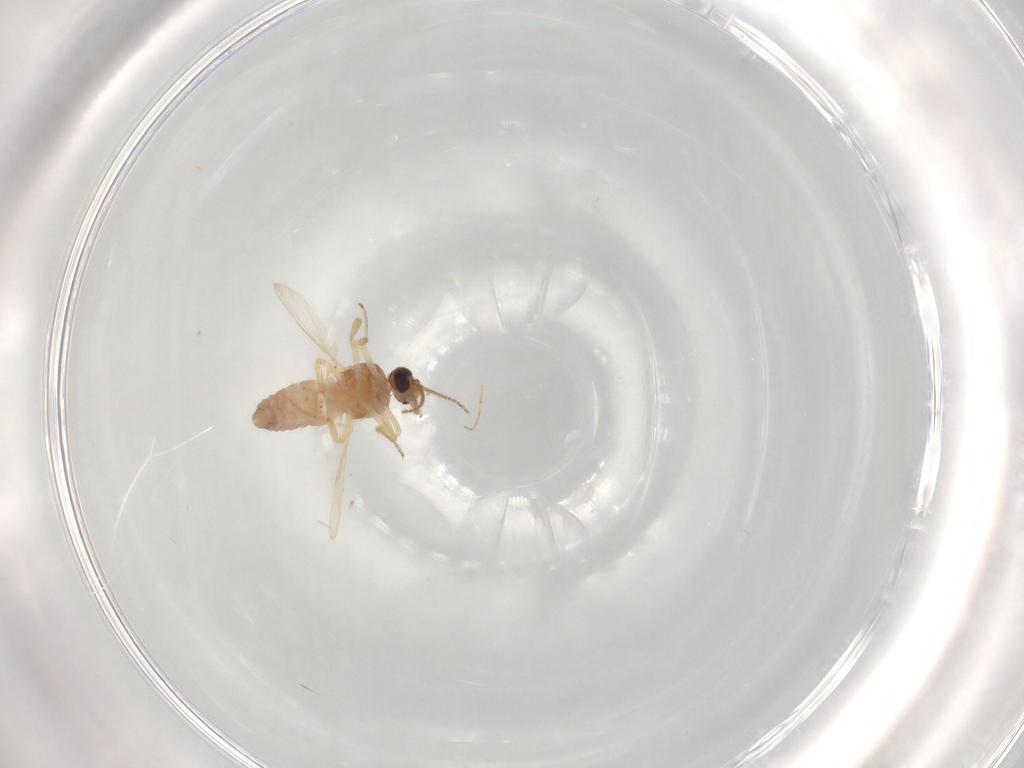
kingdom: Animalia
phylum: Arthropoda
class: Insecta
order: Diptera
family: Ceratopogonidae
